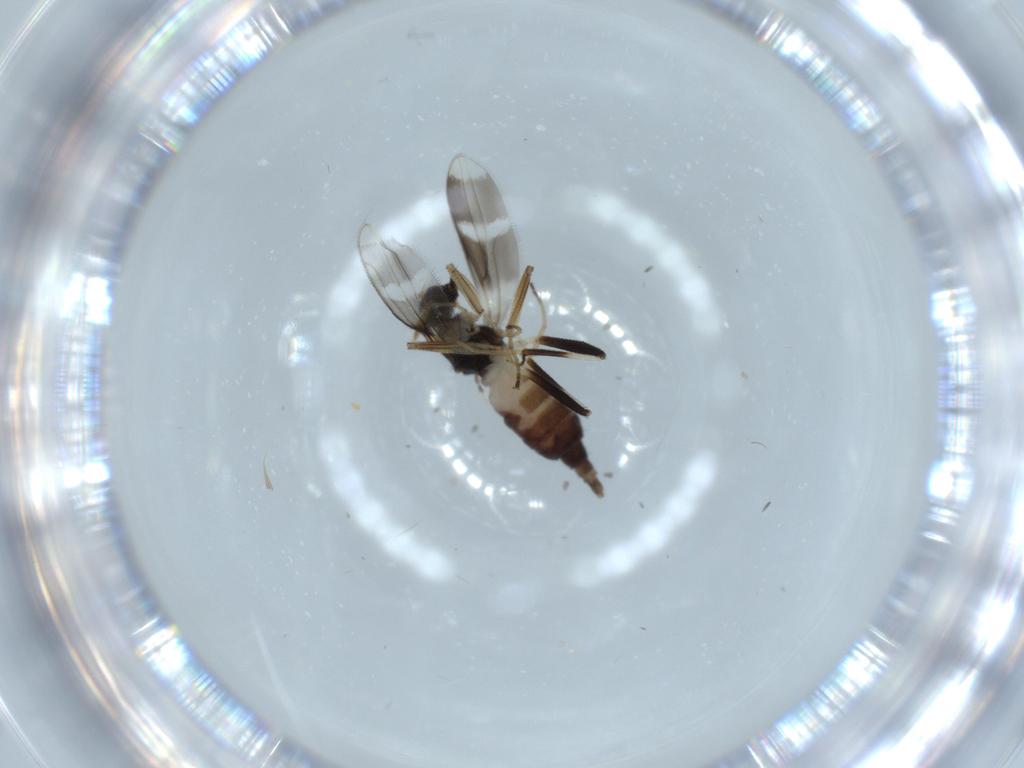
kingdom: Animalia
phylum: Arthropoda
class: Insecta
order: Diptera
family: Hybotidae
